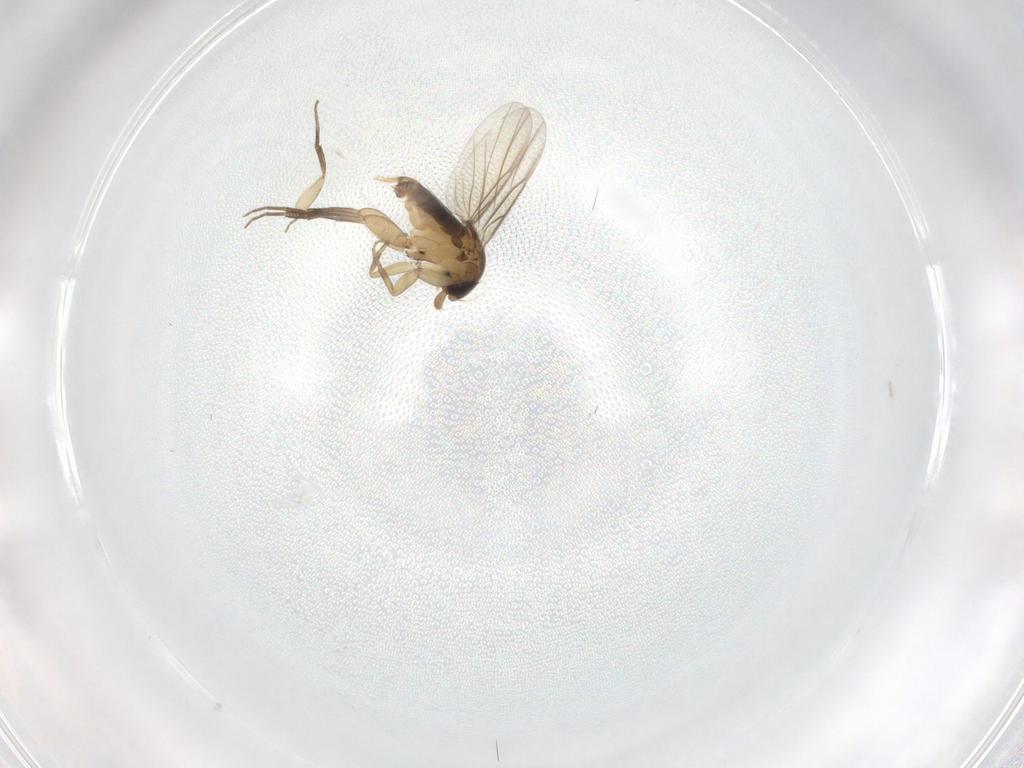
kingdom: Animalia
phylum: Arthropoda
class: Insecta
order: Diptera
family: Phoridae
